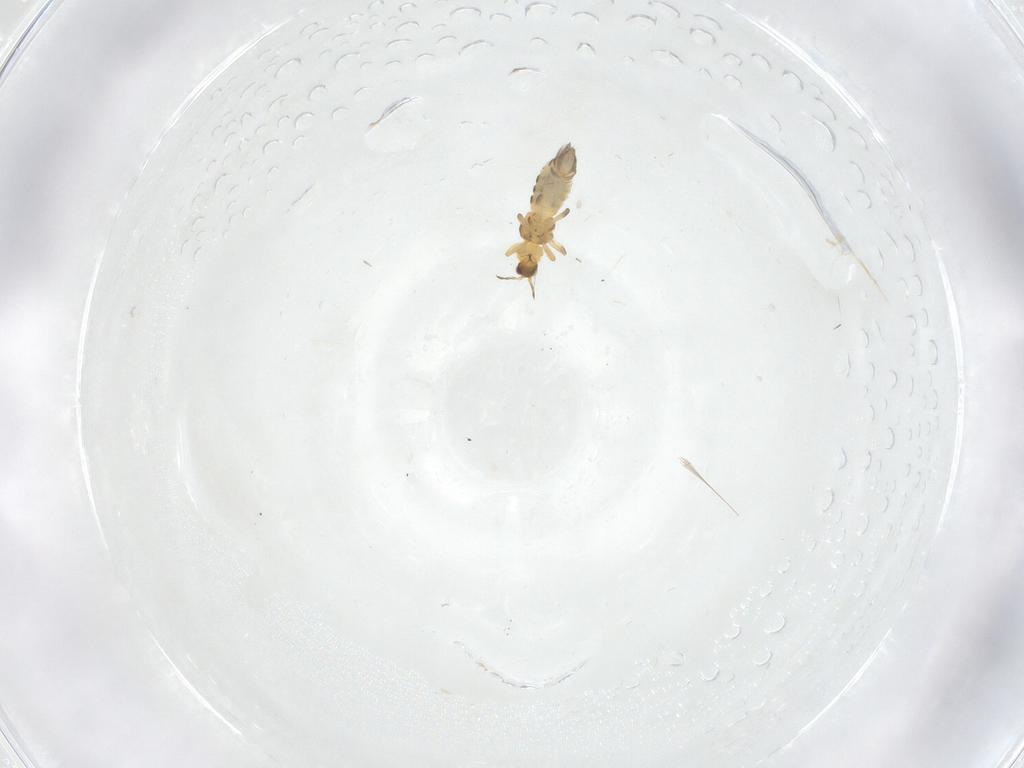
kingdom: Animalia
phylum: Arthropoda
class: Insecta
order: Thysanoptera
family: Thripidae
